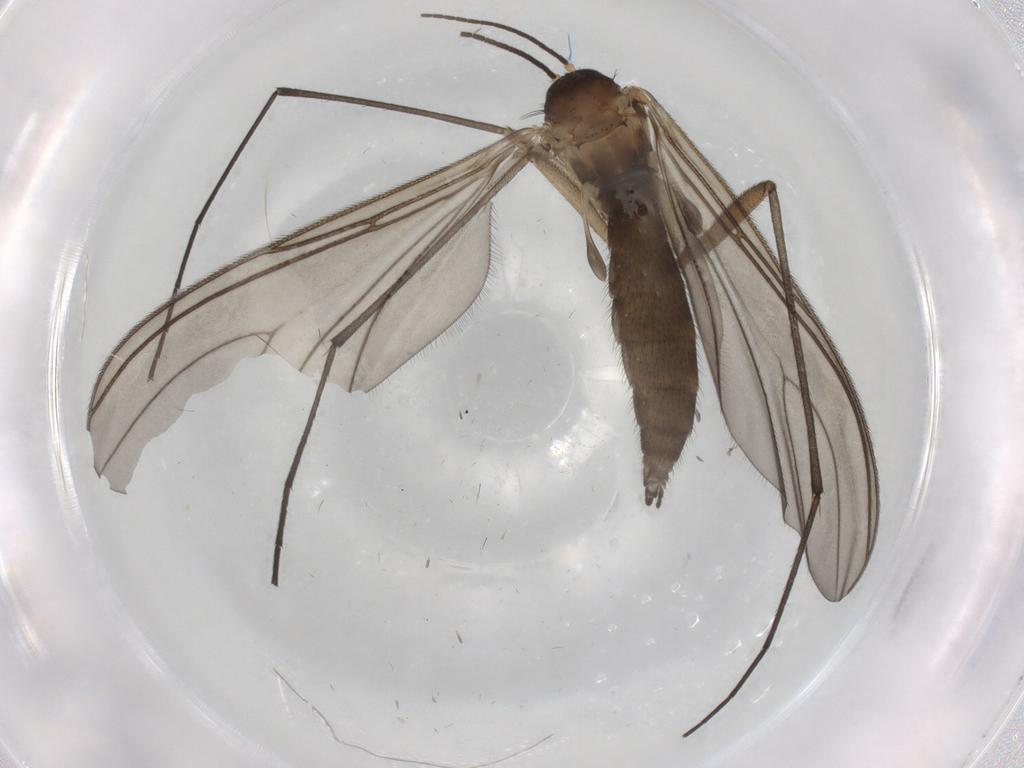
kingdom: Animalia
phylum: Arthropoda
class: Insecta
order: Diptera
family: Sciaridae
